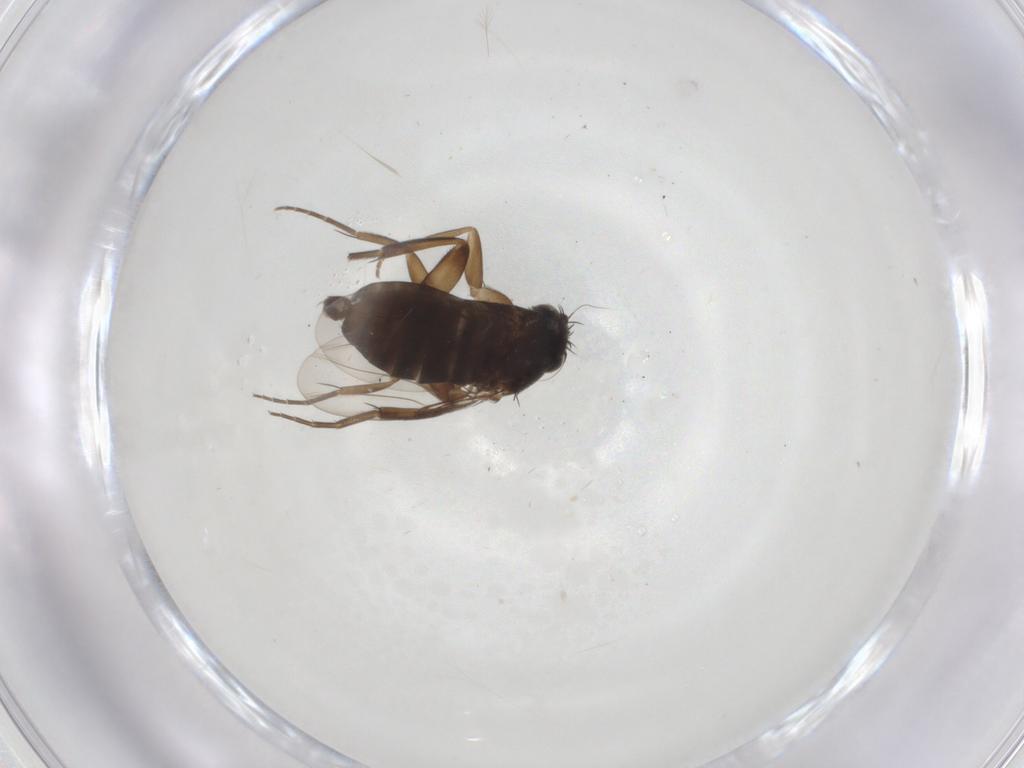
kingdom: Animalia
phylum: Arthropoda
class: Insecta
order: Diptera
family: Phoridae
